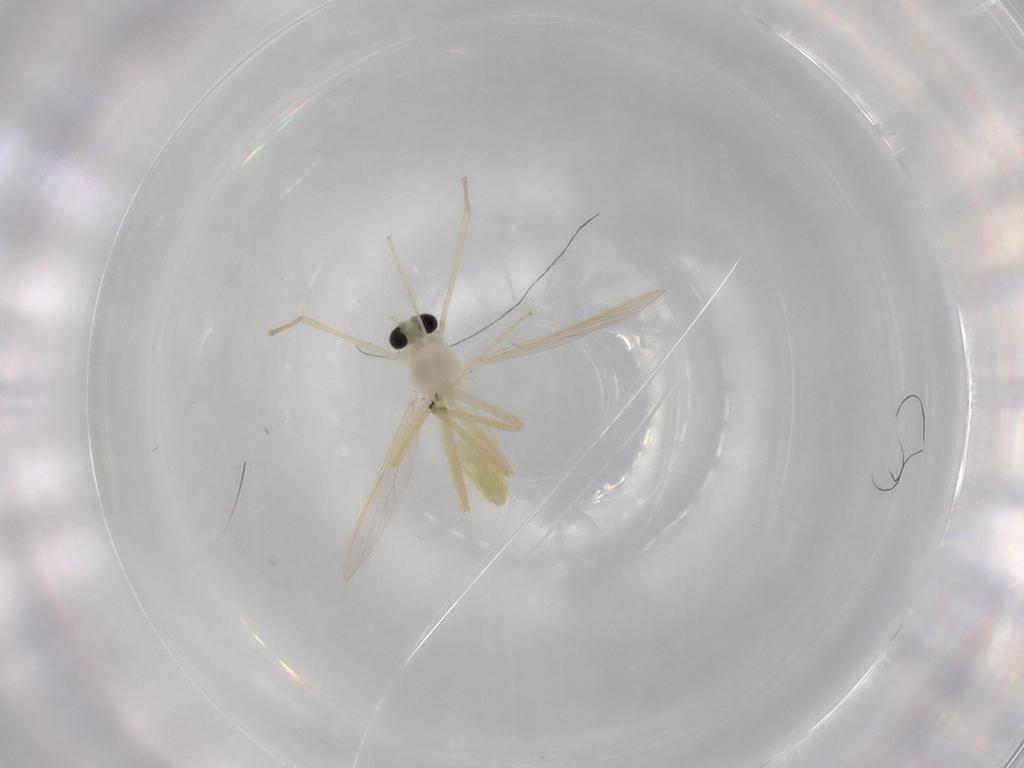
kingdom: Animalia
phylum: Arthropoda
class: Insecta
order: Diptera
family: Chironomidae
